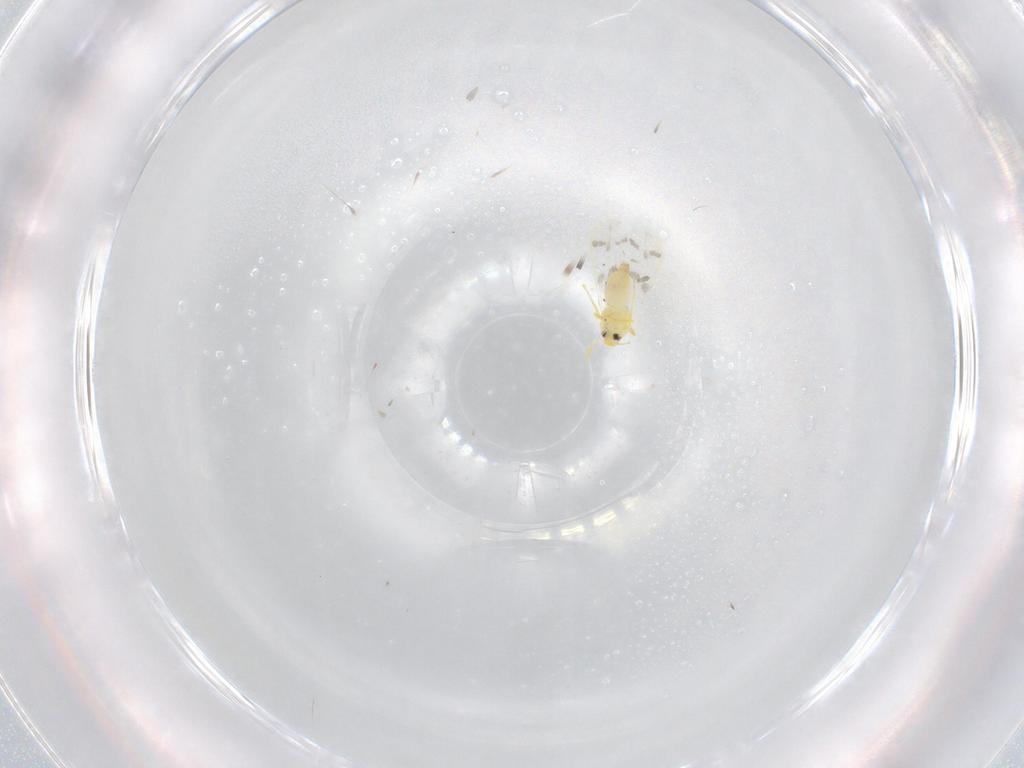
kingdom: Animalia
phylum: Arthropoda
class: Insecta
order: Hemiptera
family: Aleyrodidae
